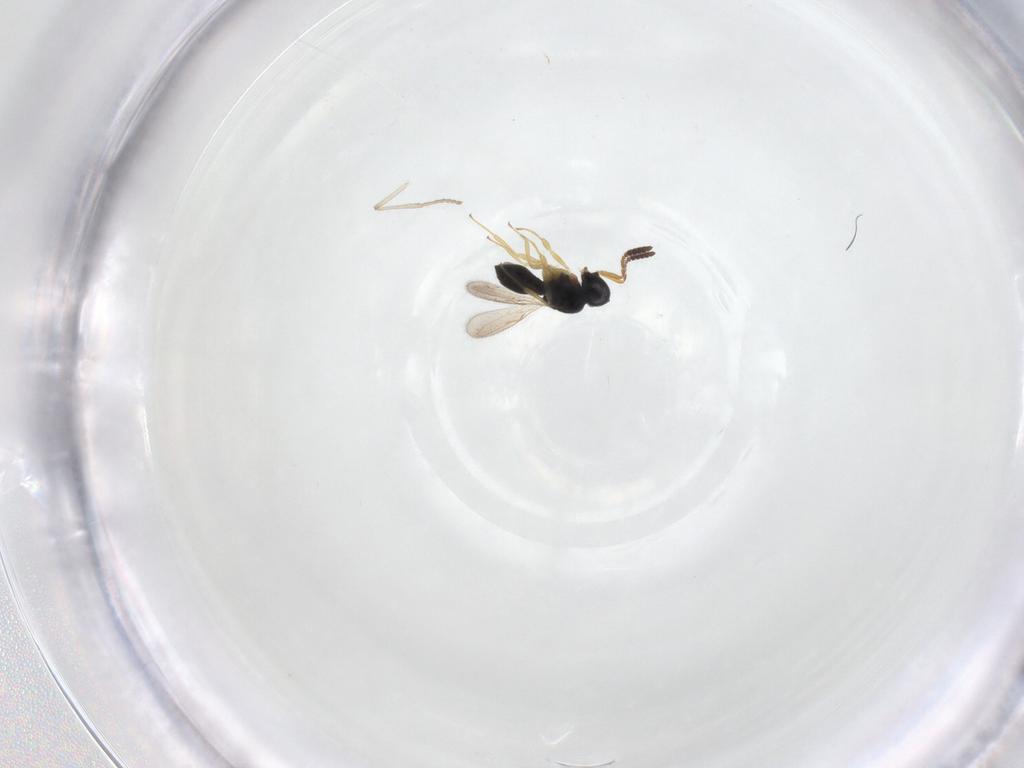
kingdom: Animalia
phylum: Arthropoda
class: Insecta
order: Hymenoptera
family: Scelionidae
